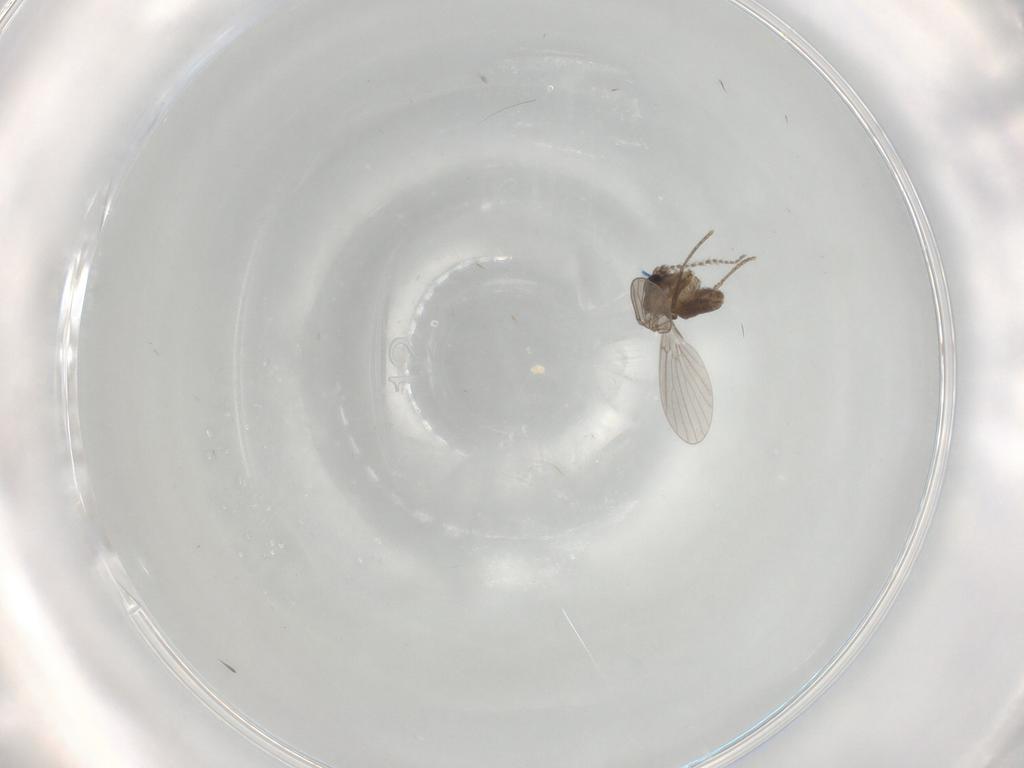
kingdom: Animalia
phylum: Arthropoda
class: Insecta
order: Diptera
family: Psychodidae
